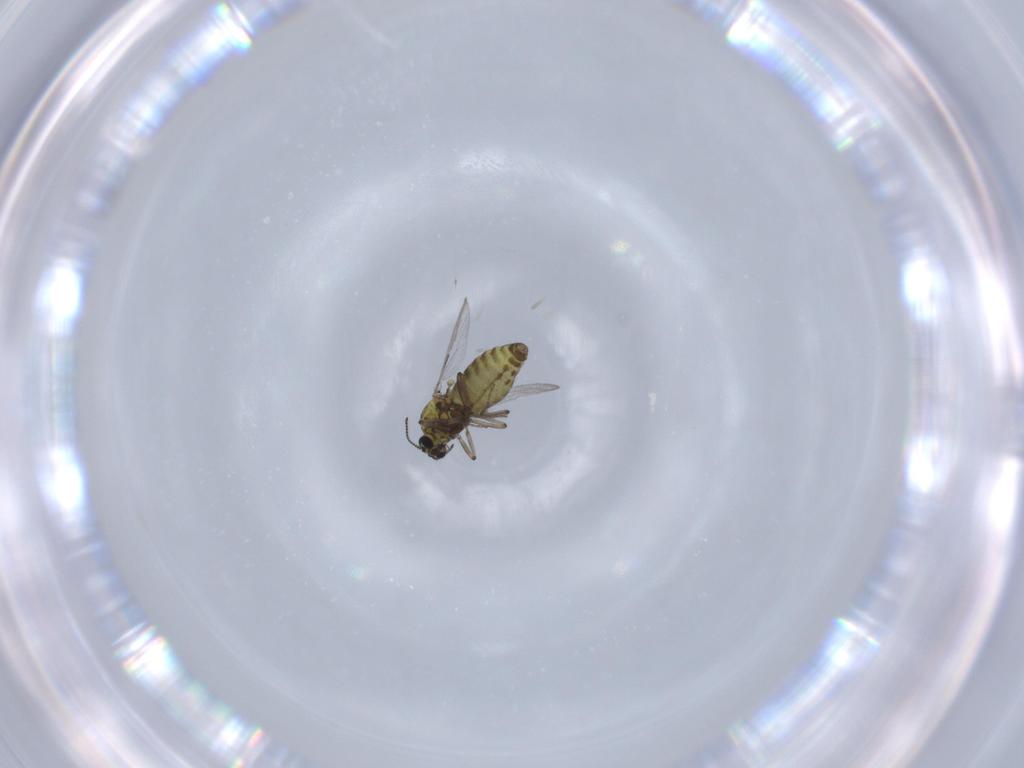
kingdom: Animalia
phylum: Arthropoda
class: Insecta
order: Diptera
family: Ceratopogonidae
